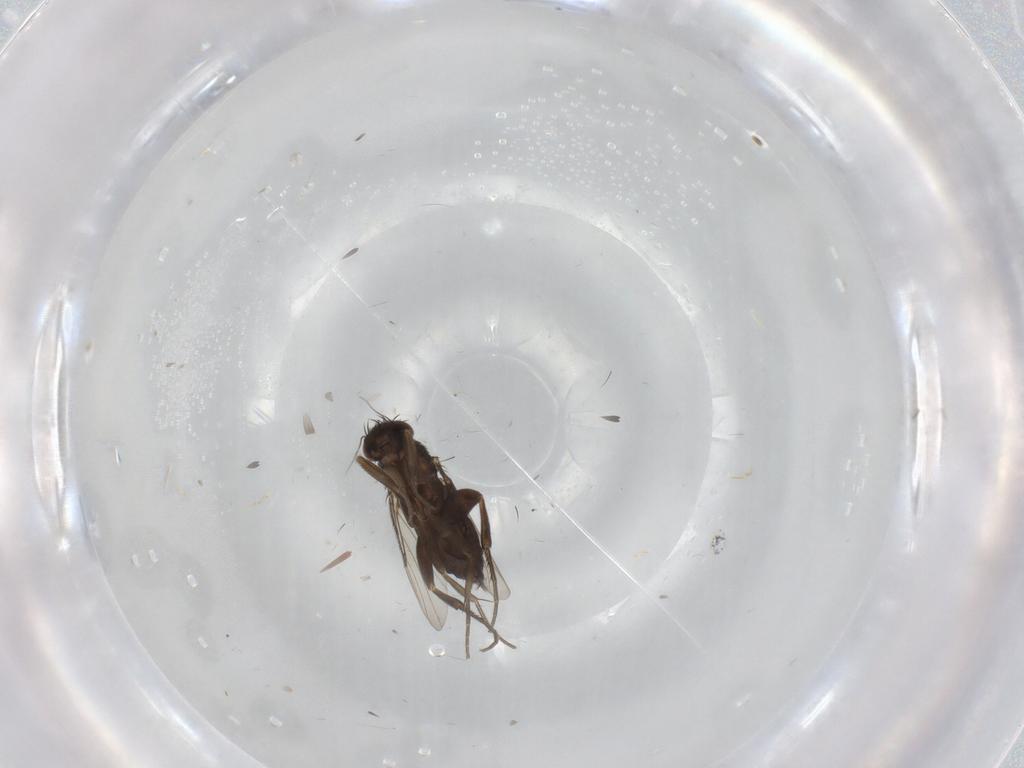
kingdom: Animalia
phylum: Arthropoda
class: Insecta
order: Diptera
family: Phoridae
